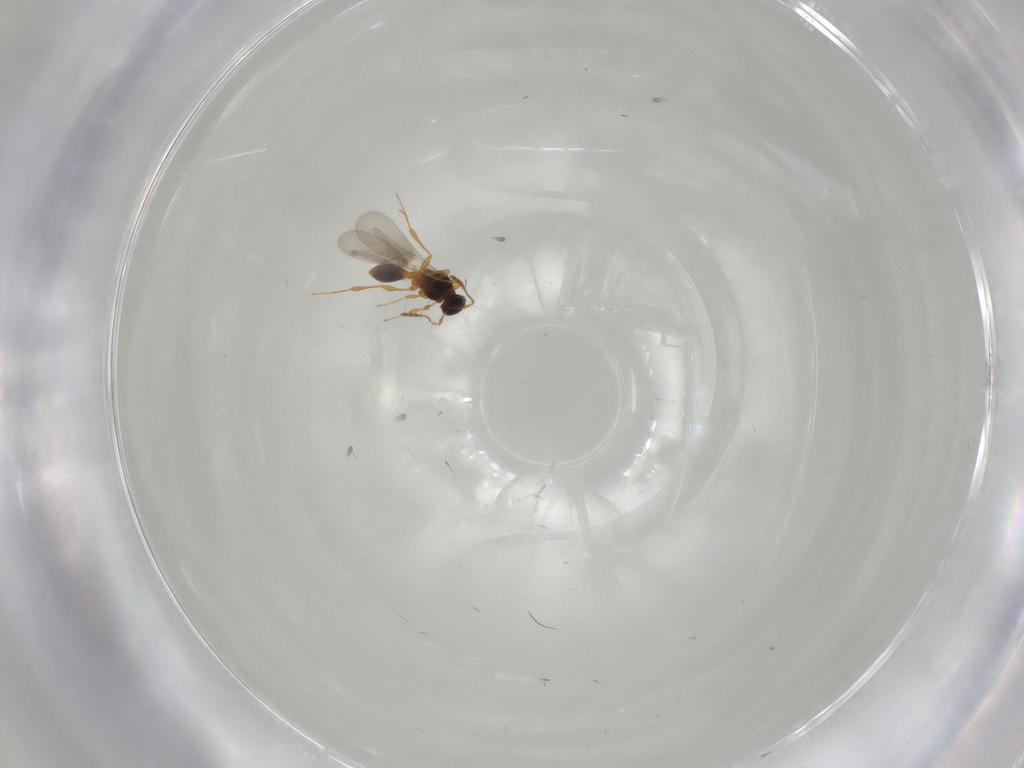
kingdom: Animalia
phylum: Arthropoda
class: Insecta
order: Hymenoptera
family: Platygastridae
